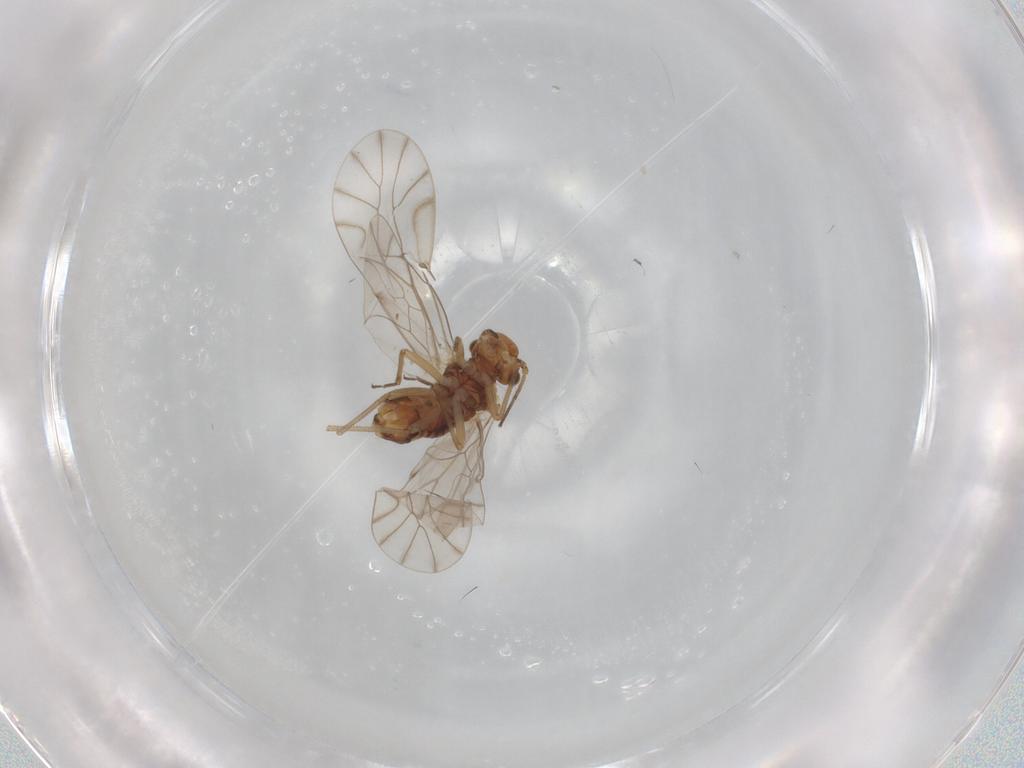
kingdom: Animalia
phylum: Arthropoda
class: Insecta
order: Psocodea
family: Lachesillidae
